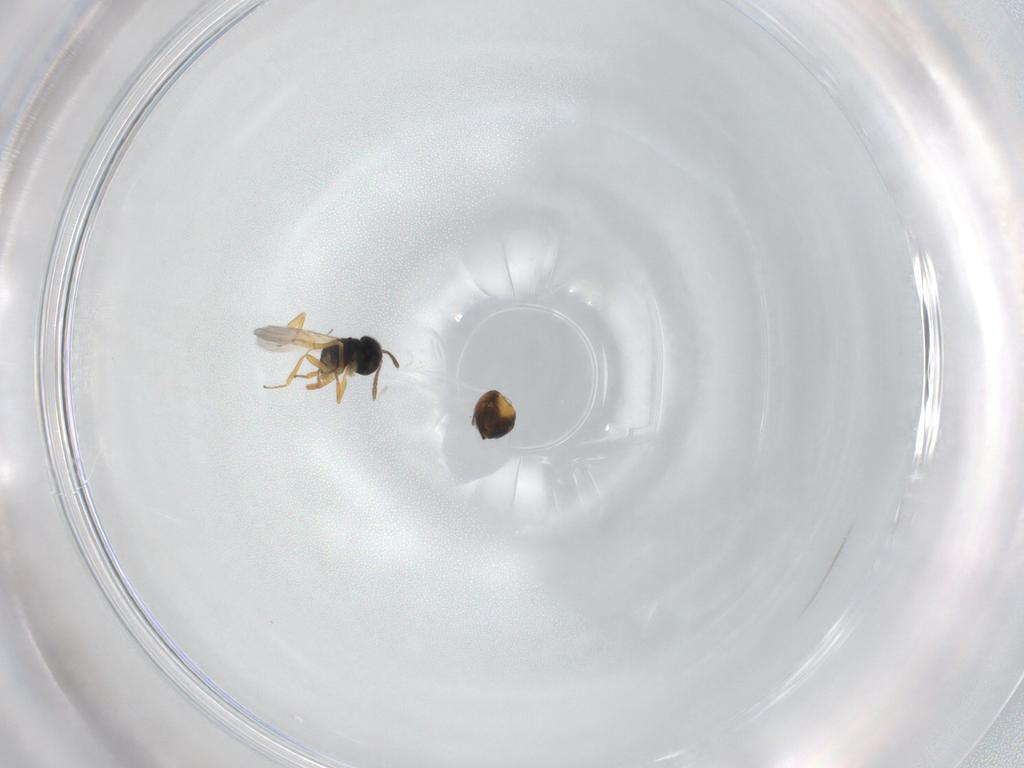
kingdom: Animalia
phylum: Arthropoda
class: Insecta
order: Hymenoptera
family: Encyrtidae
